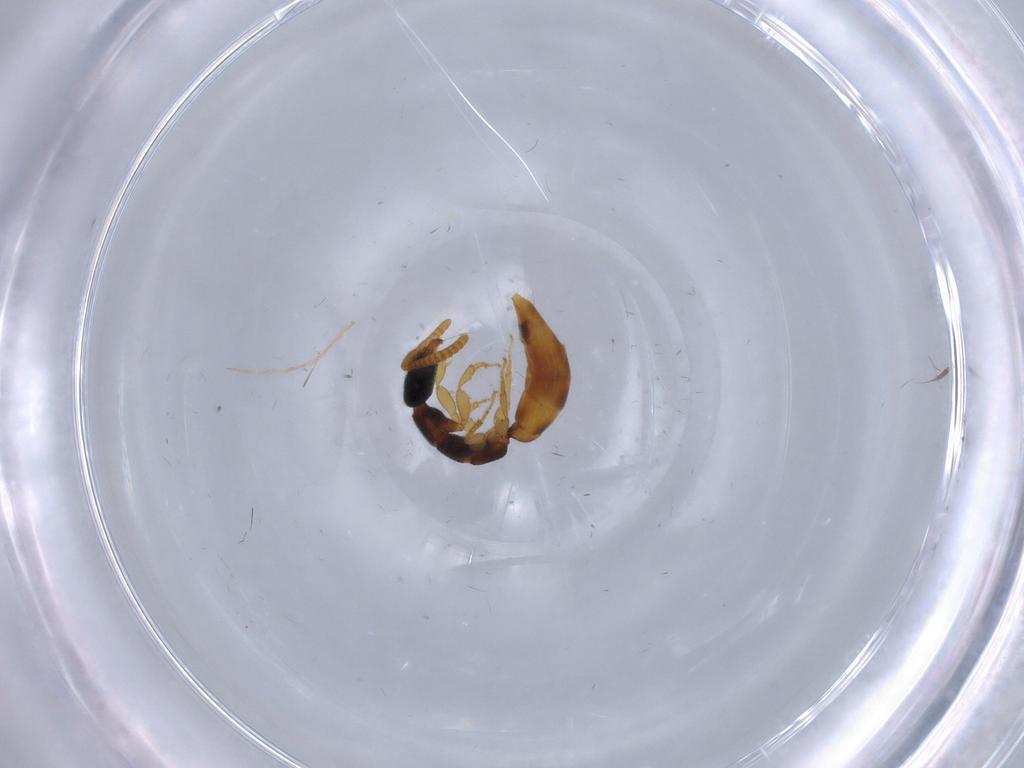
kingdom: Animalia
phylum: Arthropoda
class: Insecta
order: Hymenoptera
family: Bethylidae
